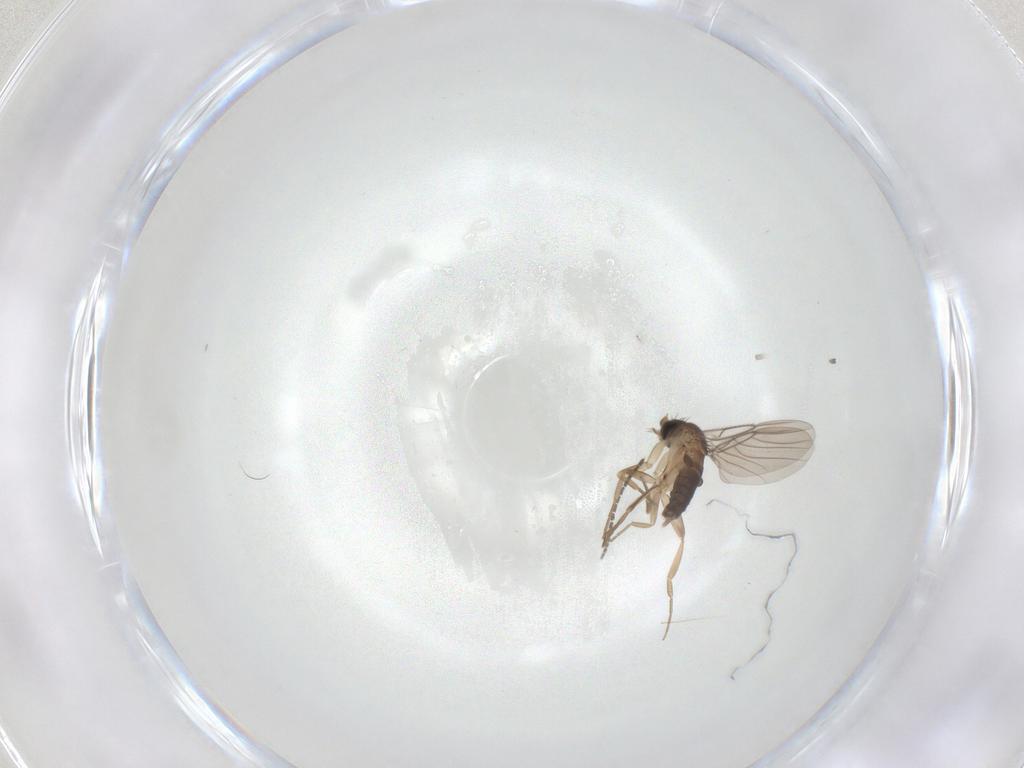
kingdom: Animalia
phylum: Arthropoda
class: Insecta
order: Diptera
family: Phoridae
